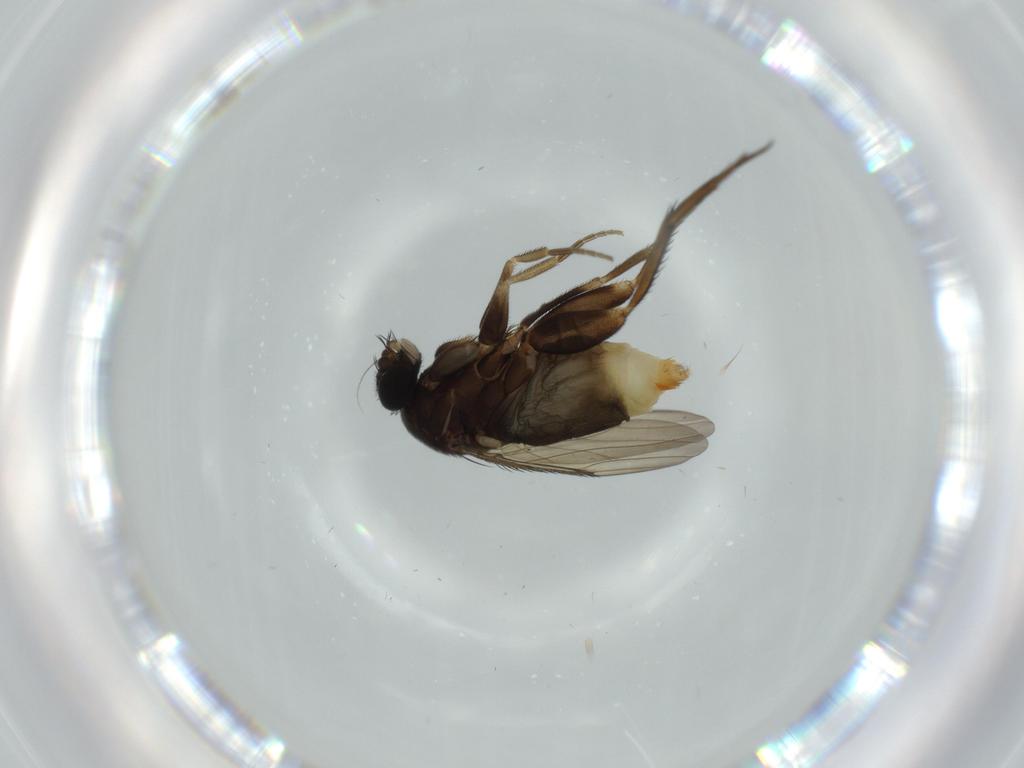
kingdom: Animalia
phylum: Arthropoda
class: Insecta
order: Diptera
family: Phoridae
